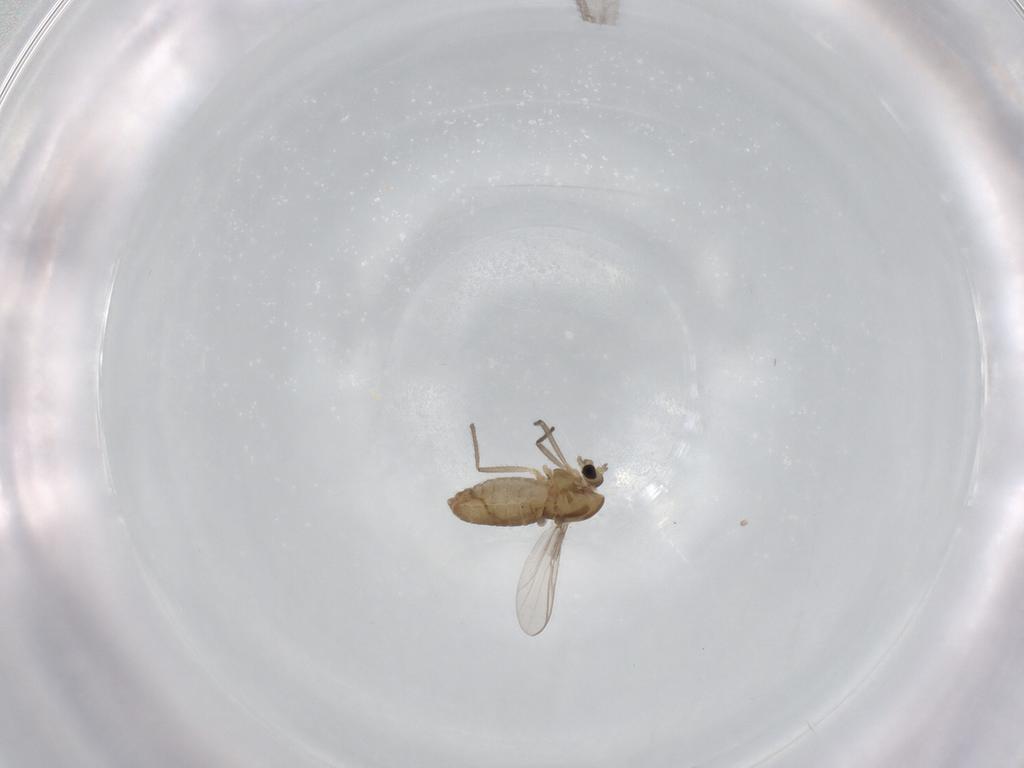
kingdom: Animalia
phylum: Arthropoda
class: Insecta
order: Diptera
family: Chironomidae
